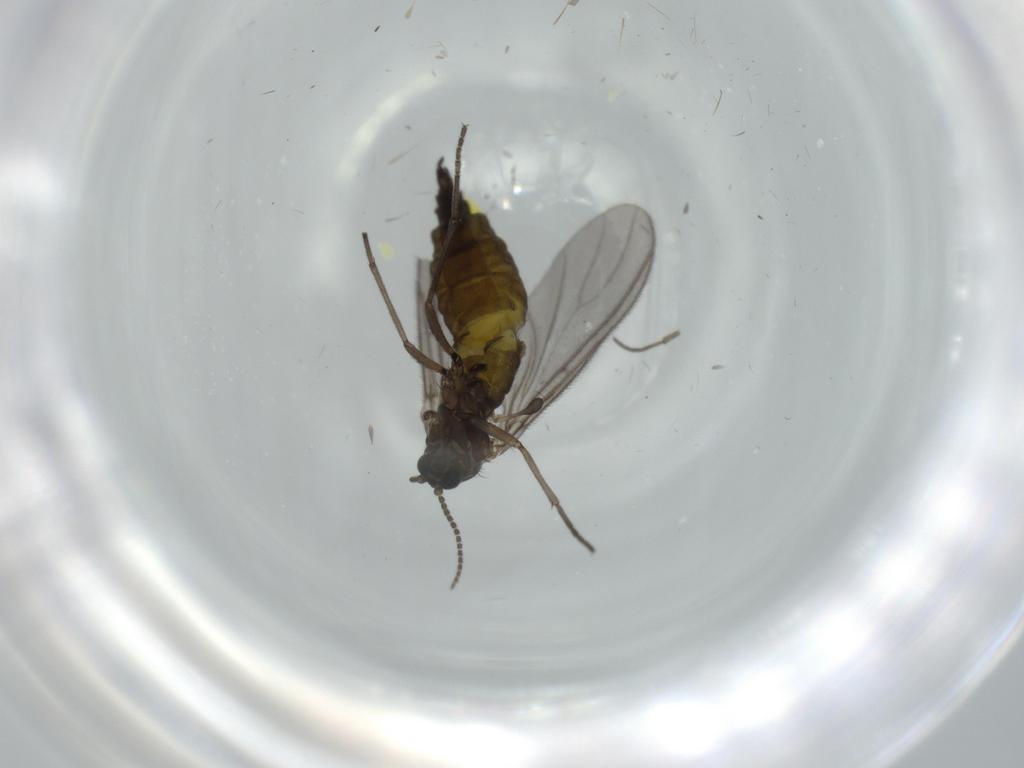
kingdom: Animalia
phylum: Arthropoda
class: Insecta
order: Diptera
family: Sciaridae
